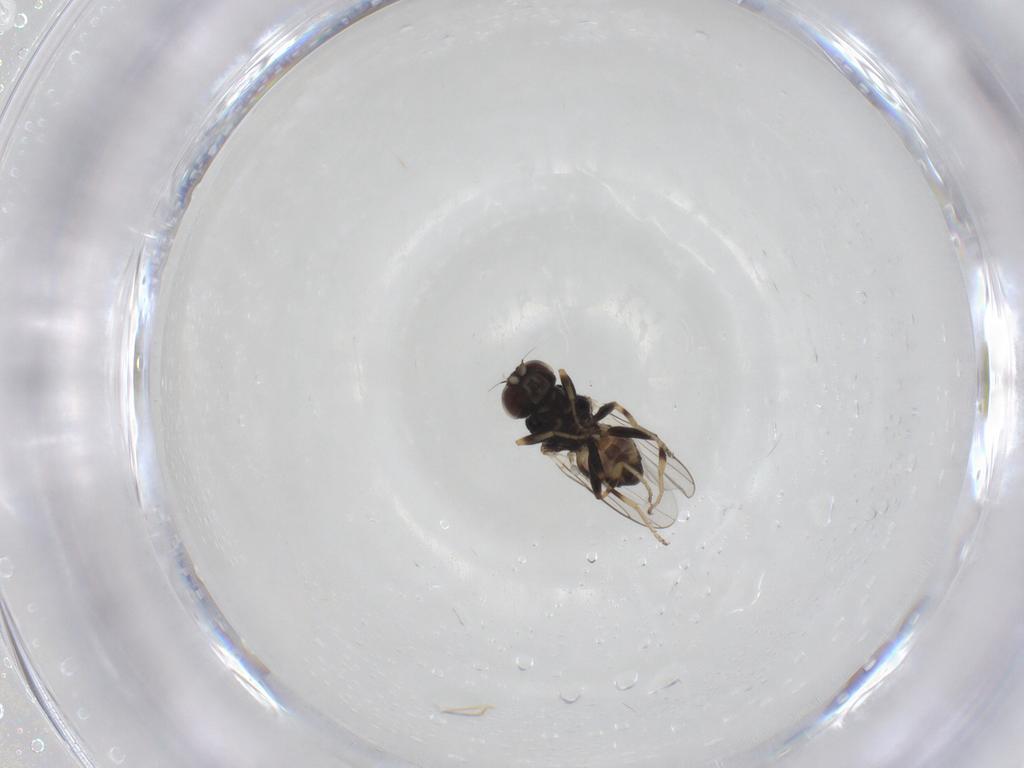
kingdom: Animalia
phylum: Arthropoda
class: Insecta
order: Diptera
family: Chloropidae
